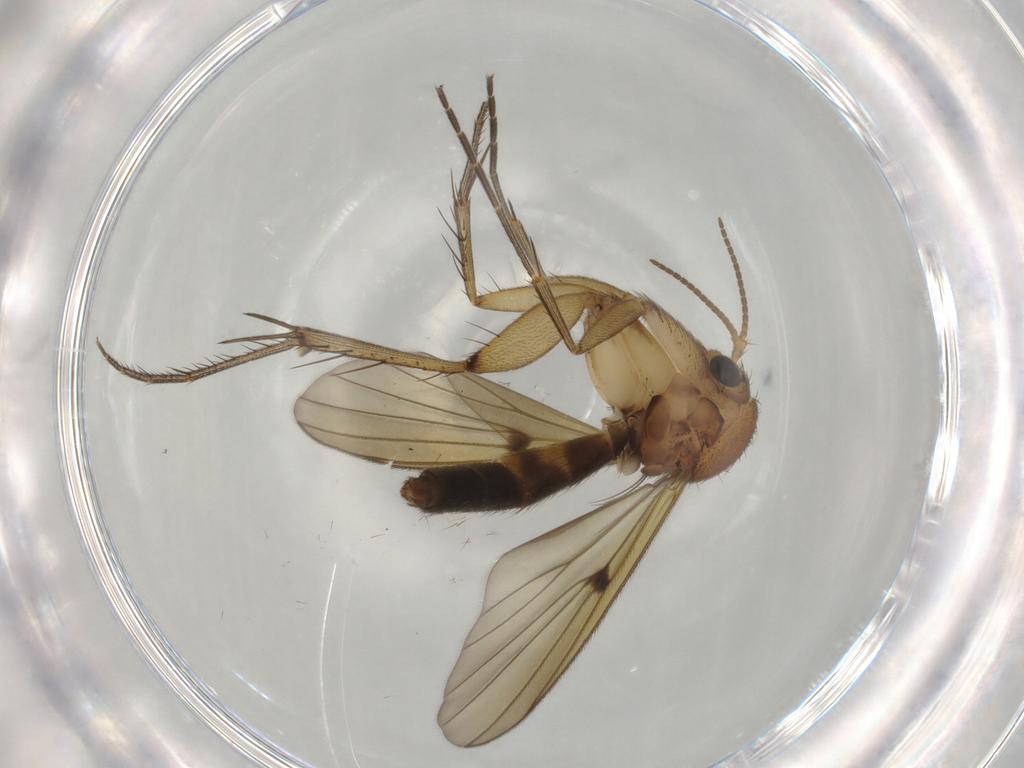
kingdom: Animalia
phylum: Arthropoda
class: Insecta
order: Diptera
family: Mycetophilidae
